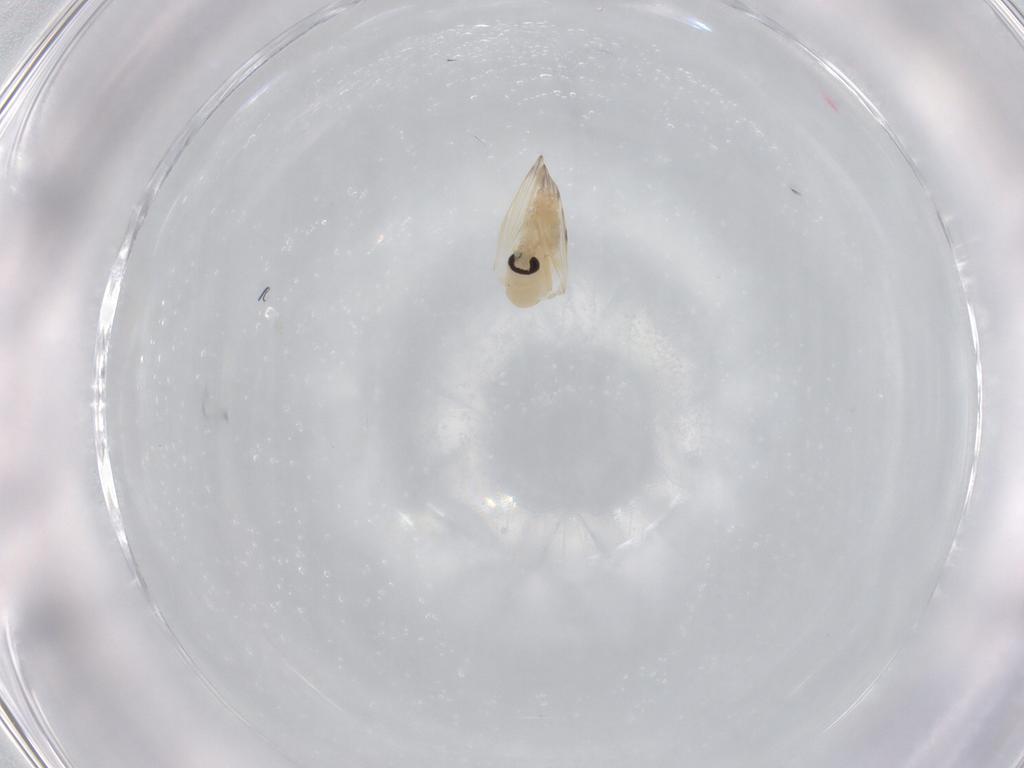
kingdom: Animalia
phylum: Arthropoda
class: Insecta
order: Diptera
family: Psychodidae
